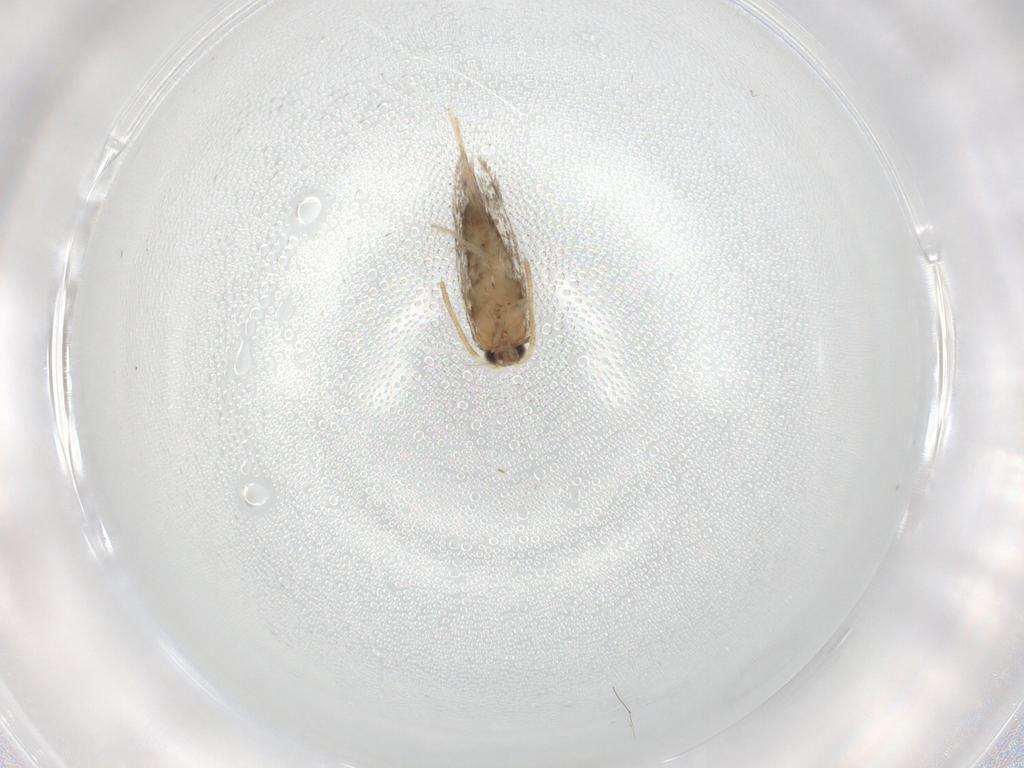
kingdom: Animalia
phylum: Arthropoda
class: Insecta
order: Lepidoptera
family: Nepticulidae
